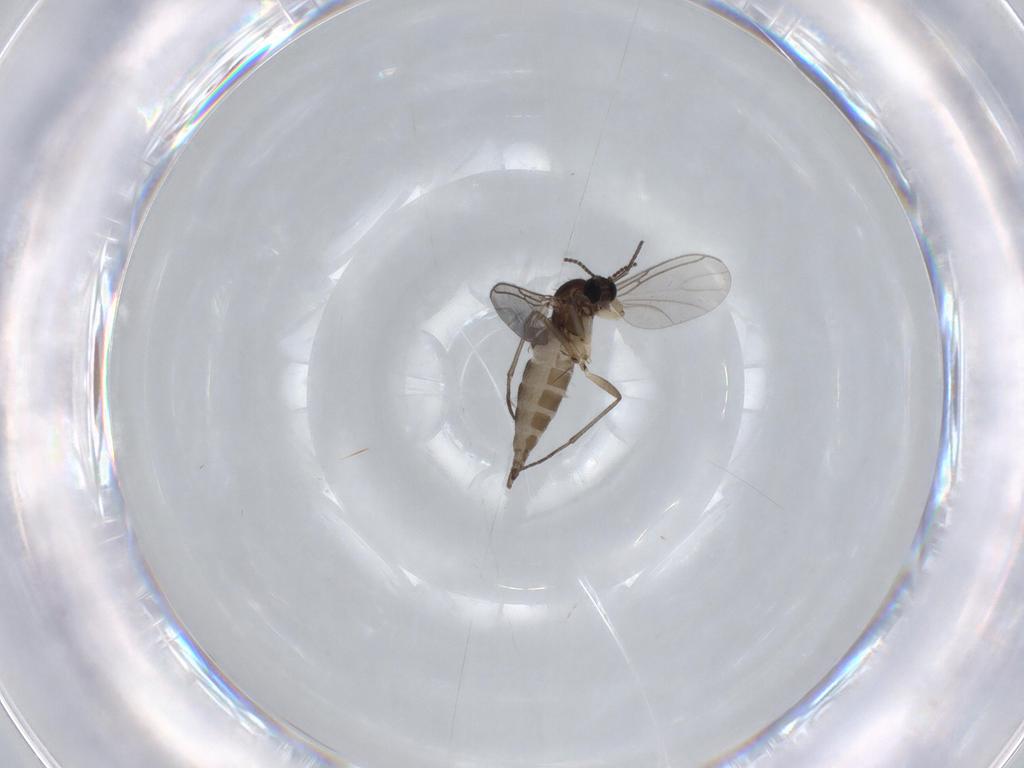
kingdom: Animalia
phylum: Arthropoda
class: Insecta
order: Diptera
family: Sciaridae
